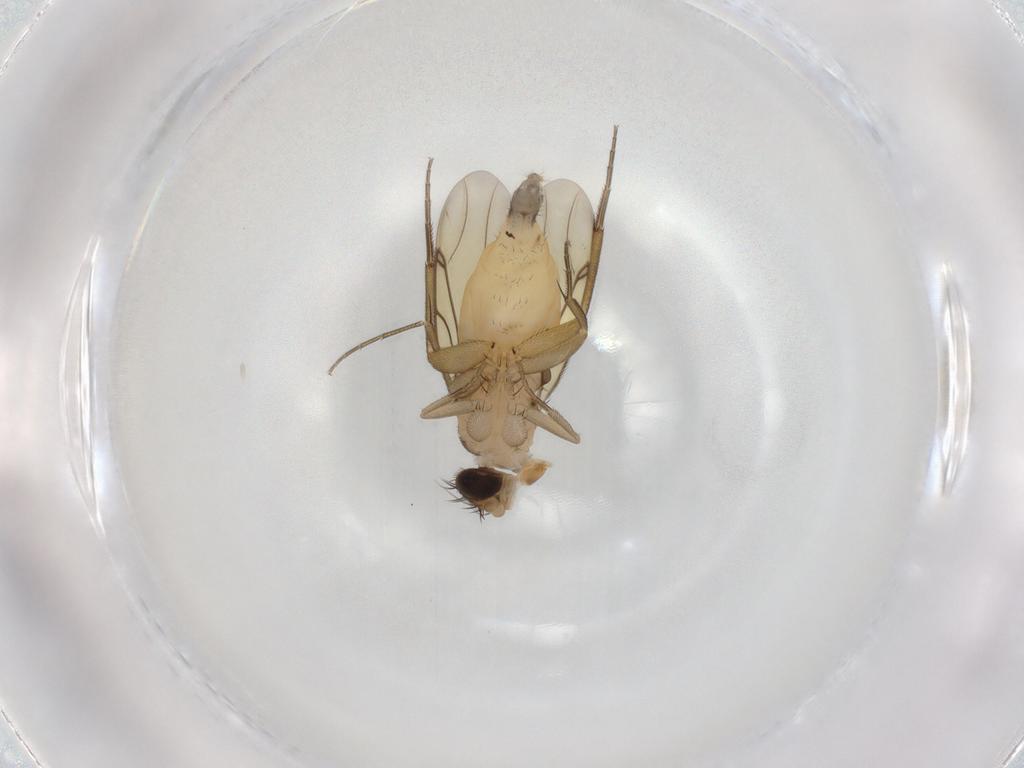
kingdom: Animalia
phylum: Arthropoda
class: Insecta
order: Diptera
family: Phoridae
